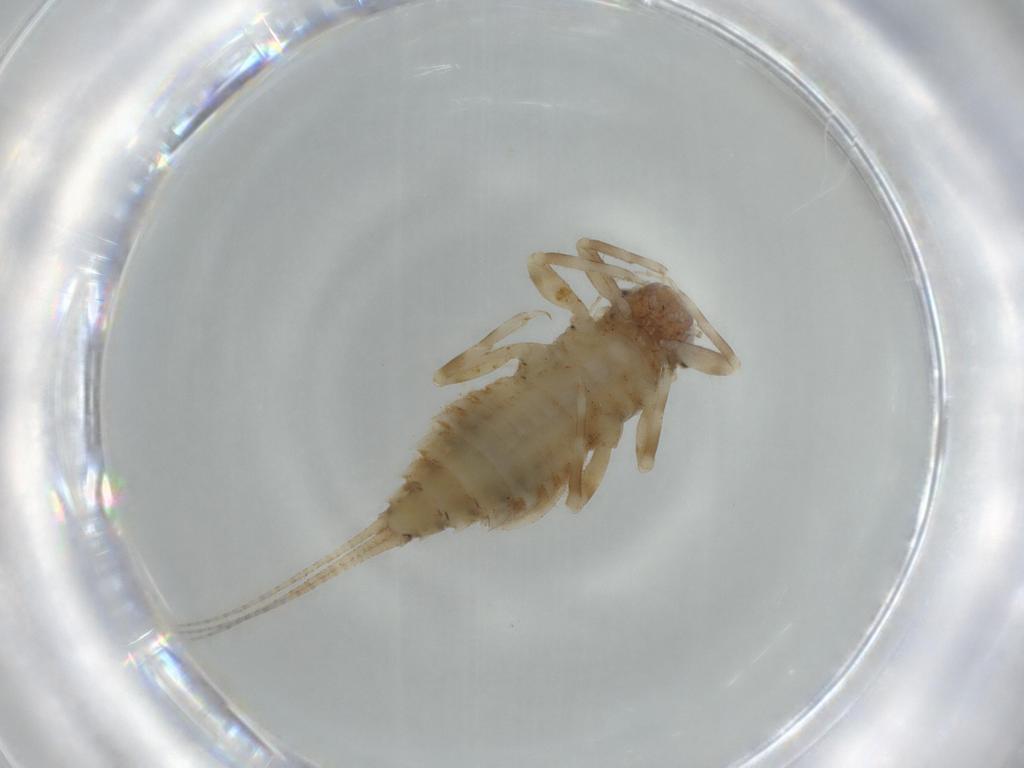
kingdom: Animalia
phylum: Arthropoda
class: Insecta
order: Ephemeroptera
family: Caenidae
